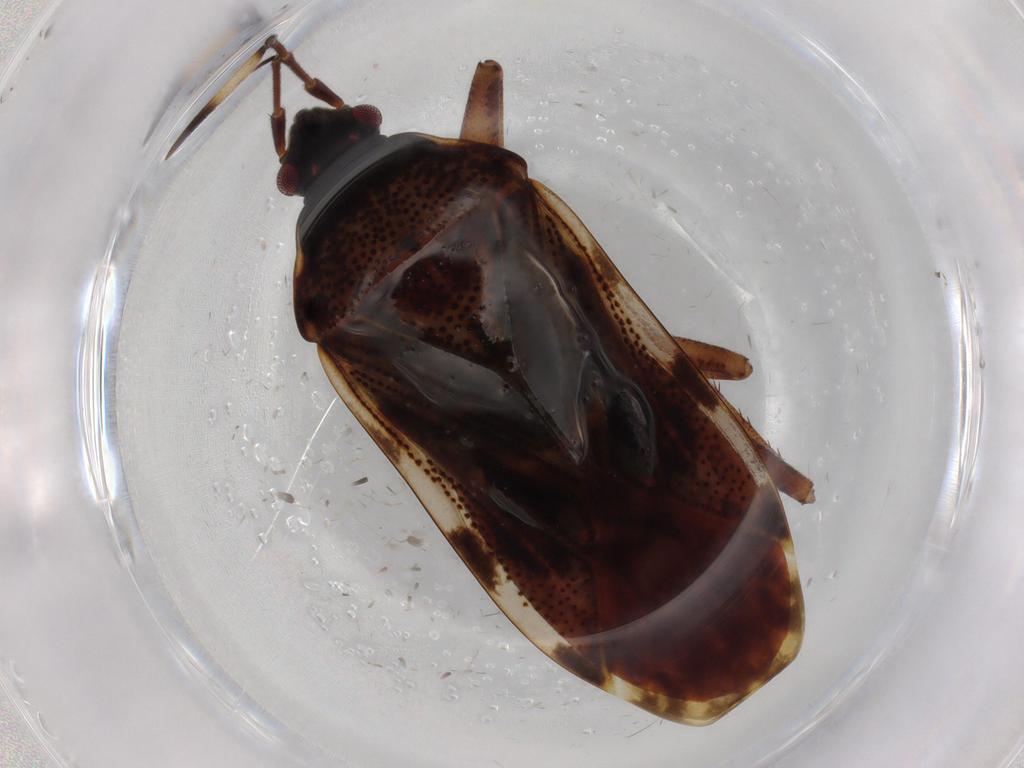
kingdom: Animalia
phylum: Arthropoda
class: Insecta
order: Hemiptera
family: Rhyparochromidae
